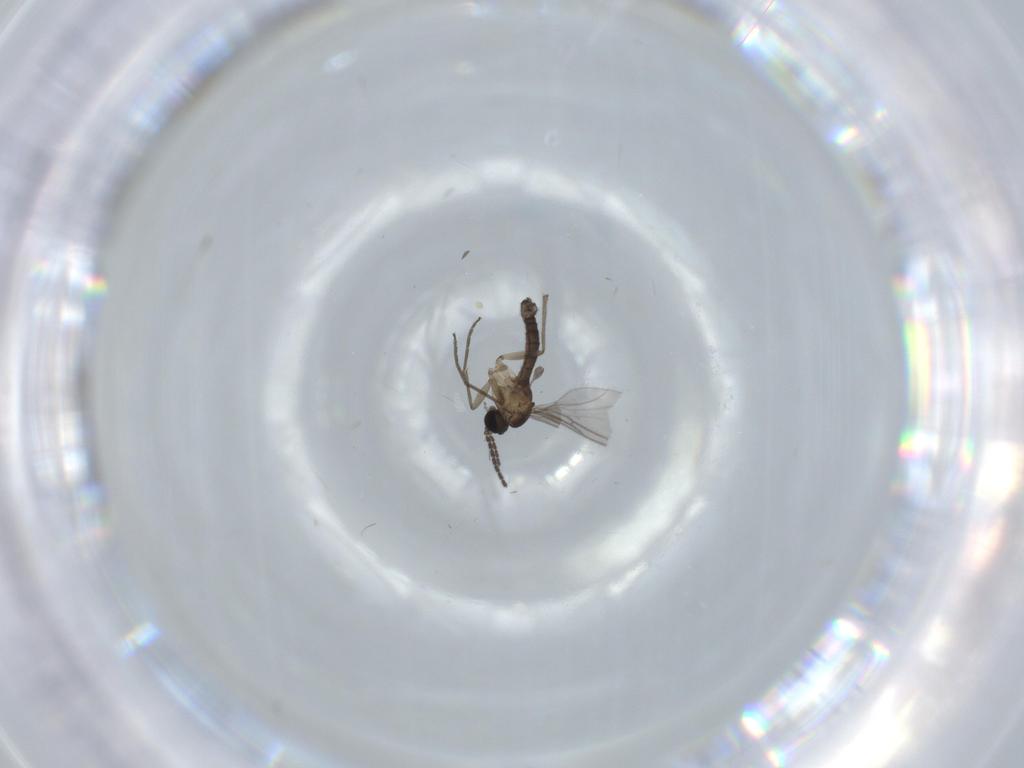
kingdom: Animalia
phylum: Arthropoda
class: Insecta
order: Diptera
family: Sciaridae
